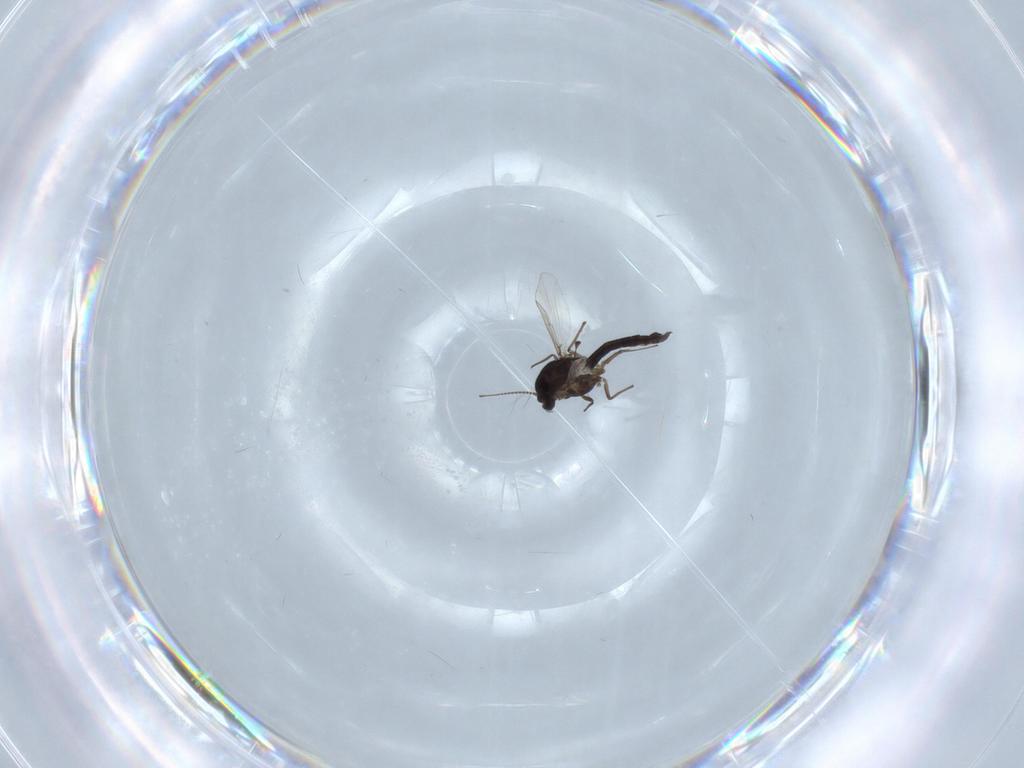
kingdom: Animalia
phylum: Arthropoda
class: Insecta
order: Diptera
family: Chironomidae
